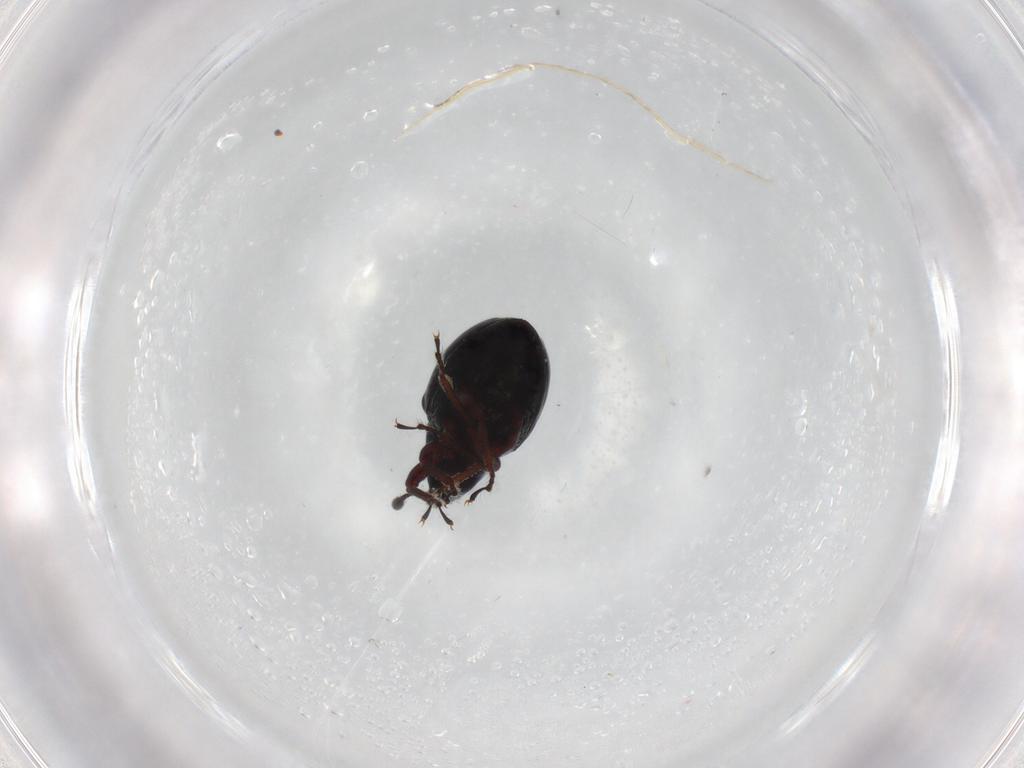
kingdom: Animalia
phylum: Arthropoda
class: Insecta
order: Coleoptera
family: Curculionidae
